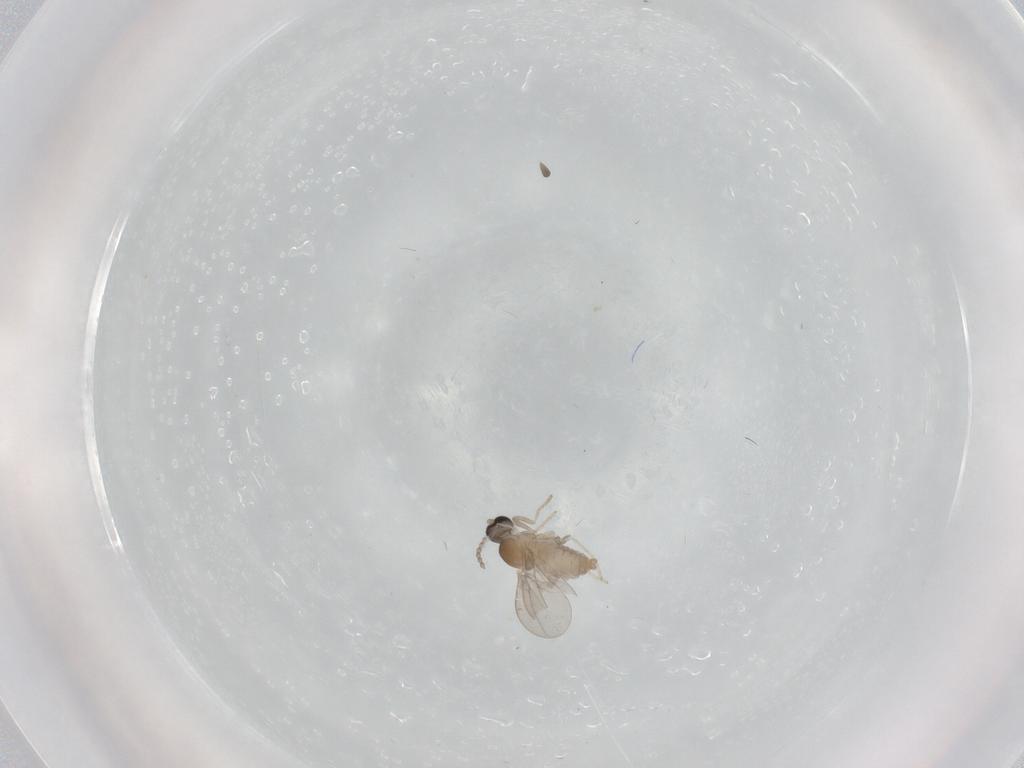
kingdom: Animalia
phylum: Arthropoda
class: Insecta
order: Diptera
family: Cecidomyiidae
